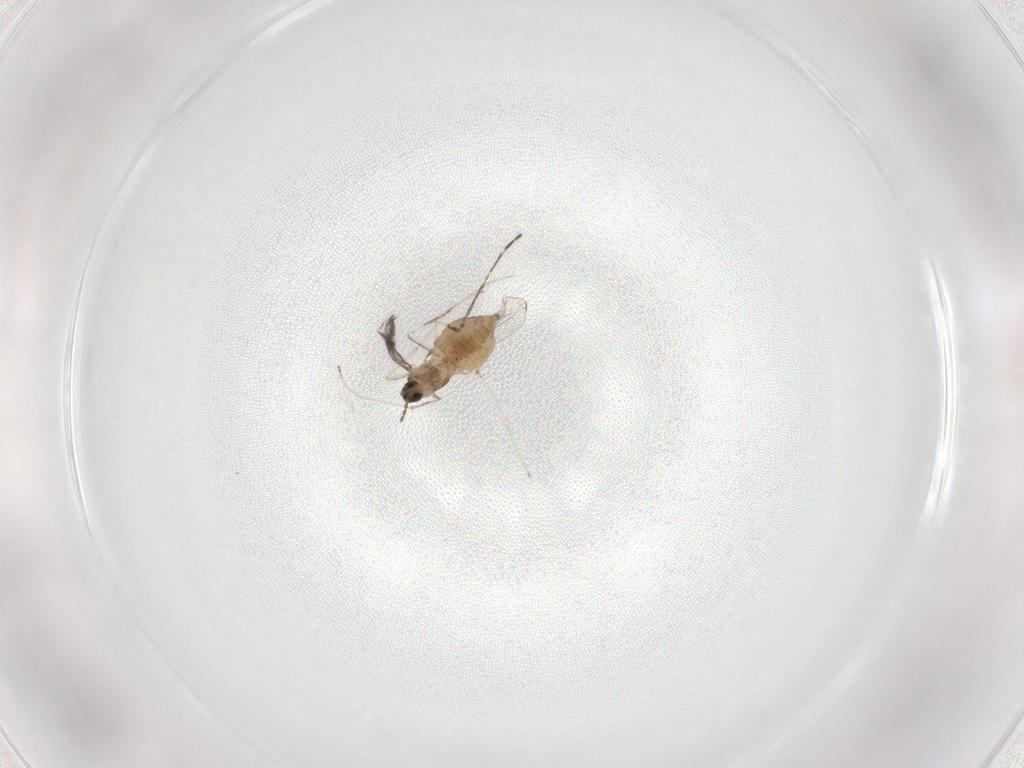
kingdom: Animalia
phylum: Arthropoda
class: Insecta
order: Diptera
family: Cecidomyiidae
